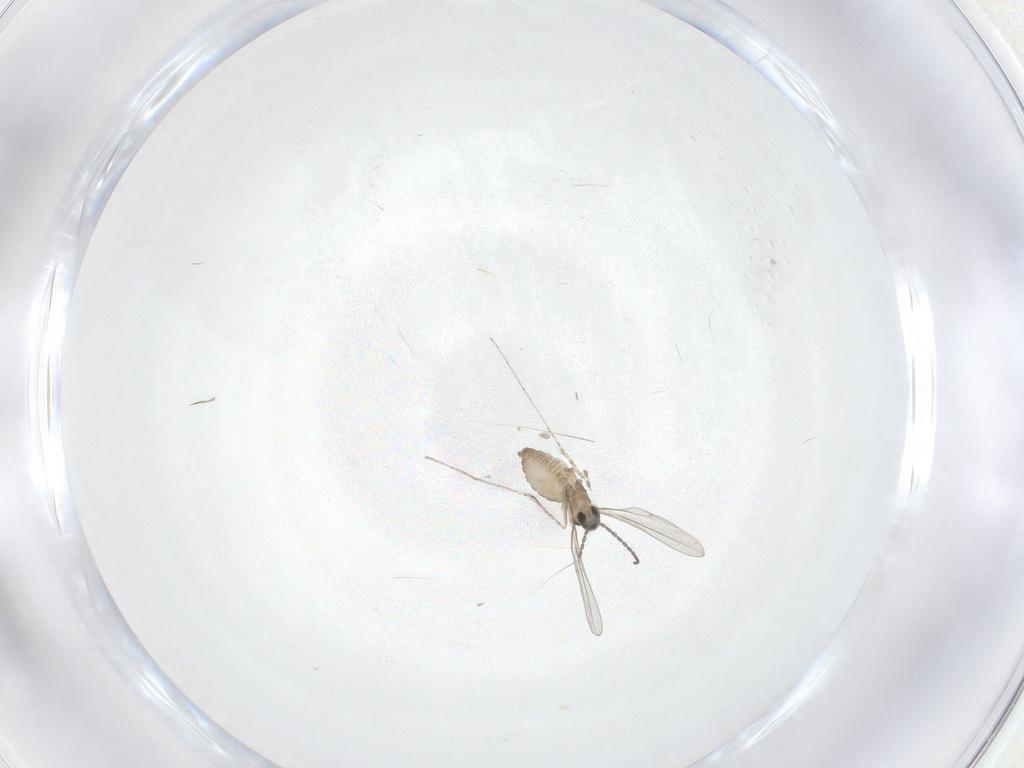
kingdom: Animalia
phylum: Arthropoda
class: Insecta
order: Diptera
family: Cecidomyiidae
